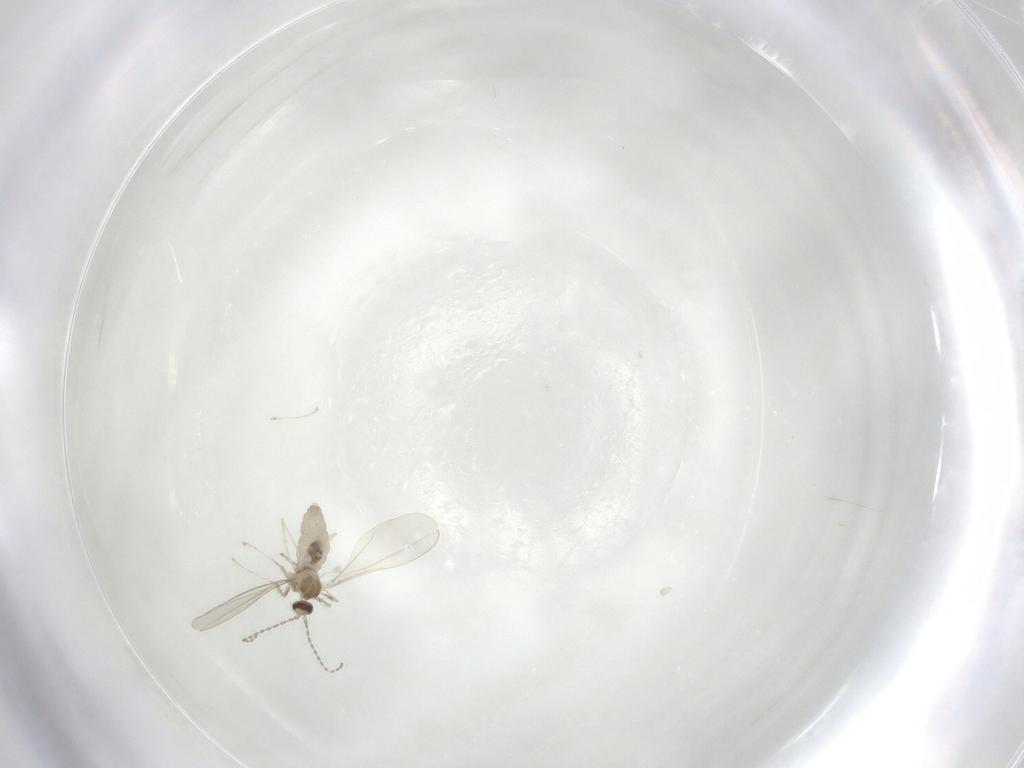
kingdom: Animalia
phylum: Arthropoda
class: Insecta
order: Diptera
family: Cecidomyiidae
